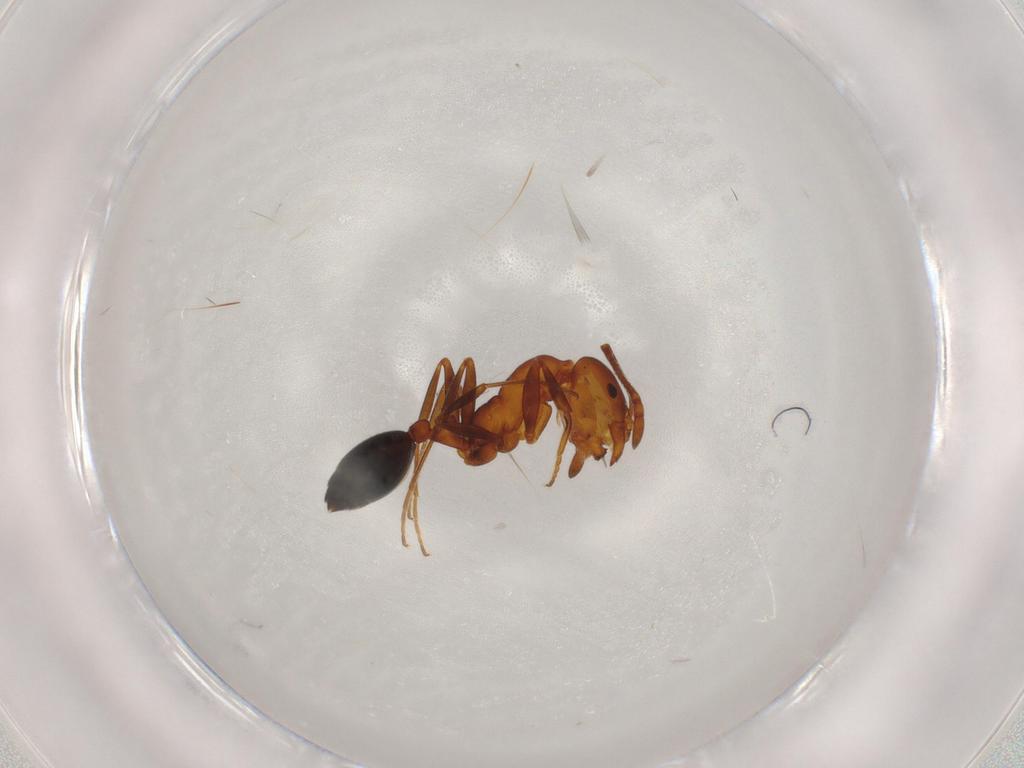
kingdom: Animalia
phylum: Arthropoda
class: Insecta
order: Hymenoptera
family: Formicidae
